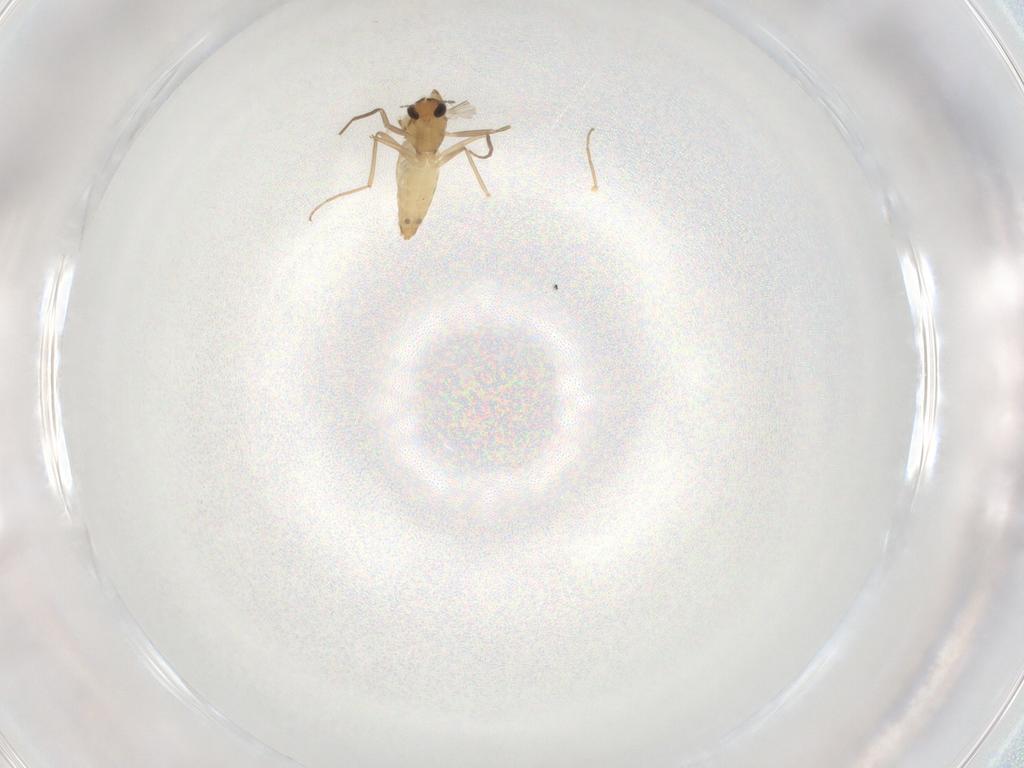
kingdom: Animalia
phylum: Arthropoda
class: Insecta
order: Diptera
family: Chironomidae
